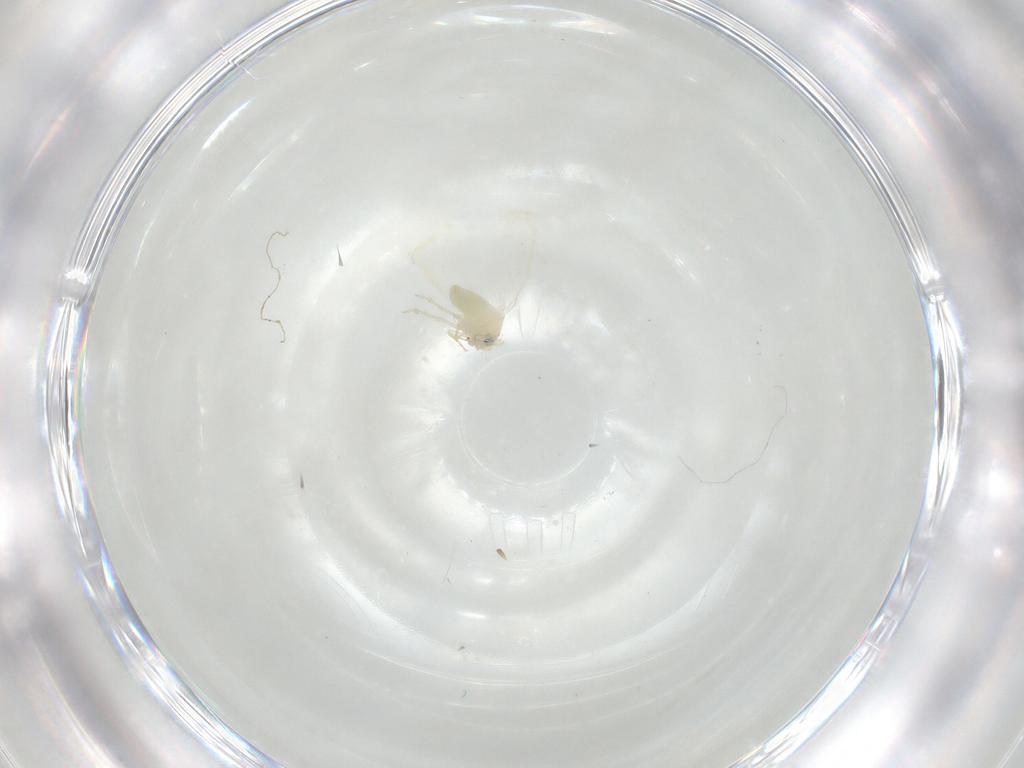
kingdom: Animalia
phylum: Arthropoda
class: Insecta
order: Hemiptera
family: Aleyrodidae
